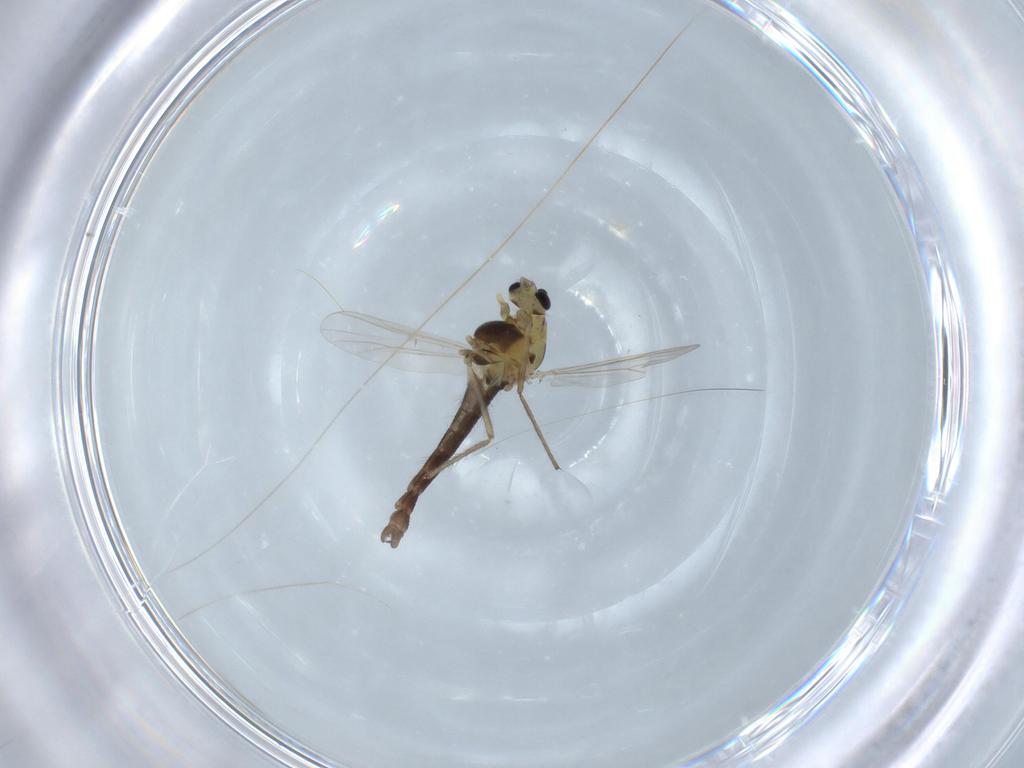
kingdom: Animalia
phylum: Arthropoda
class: Insecta
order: Diptera
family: Chironomidae
